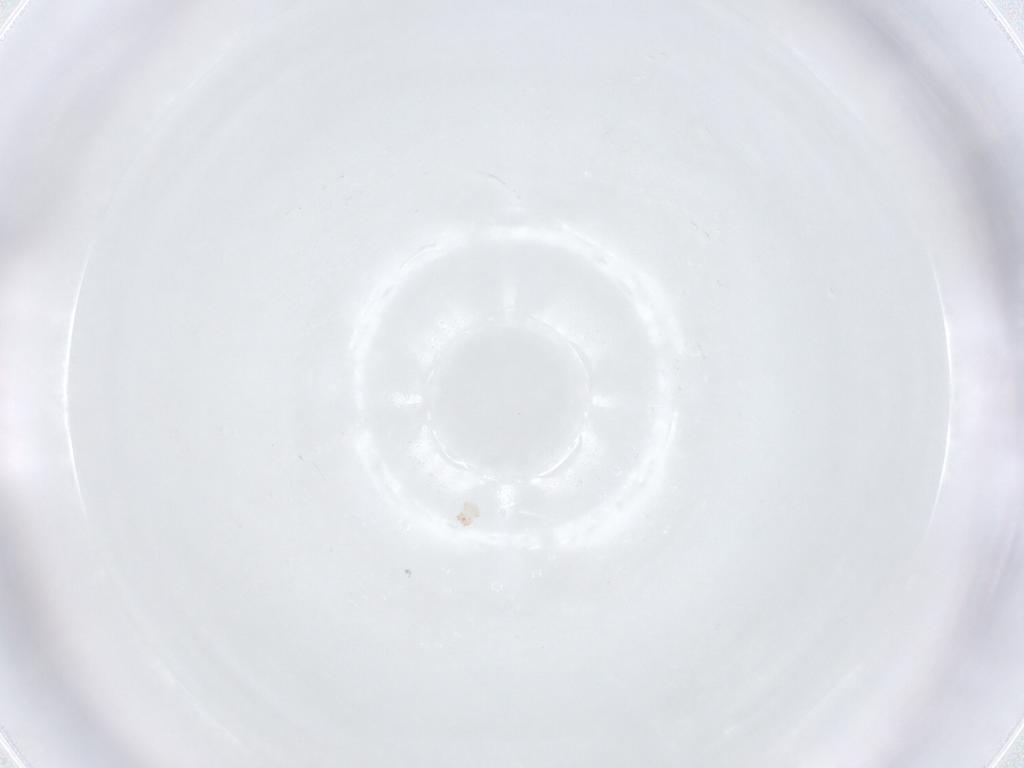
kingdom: Animalia
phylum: Arthropoda
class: Insecta
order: Orthoptera
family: Acrididae
